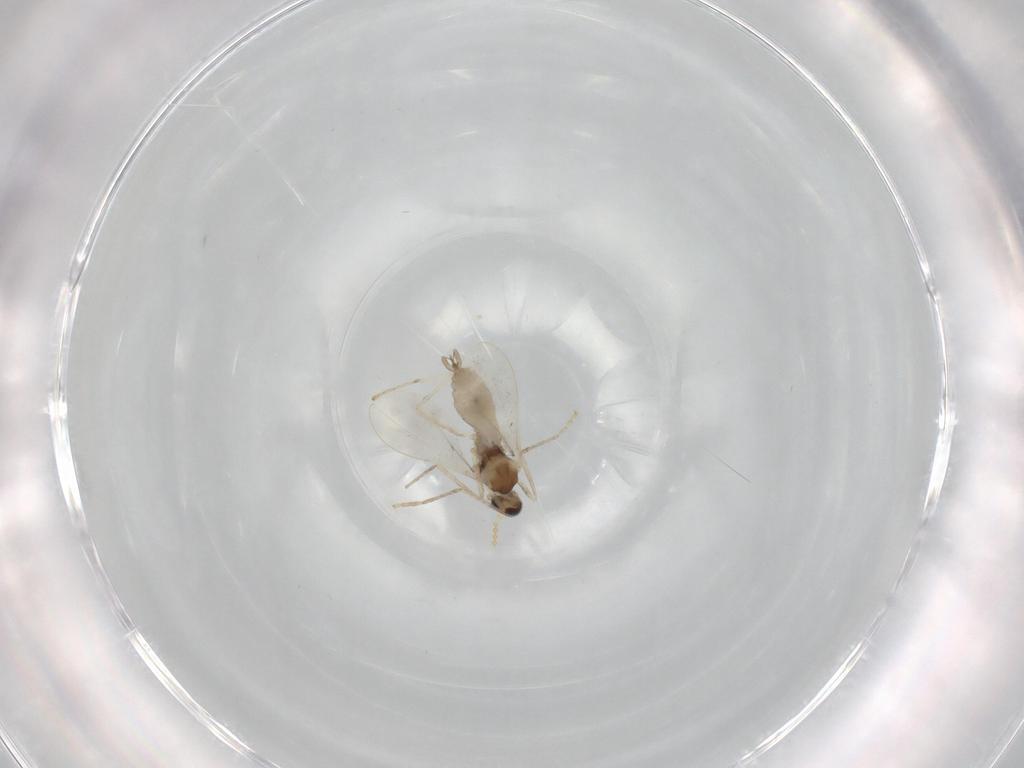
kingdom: Animalia
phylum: Arthropoda
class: Insecta
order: Diptera
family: Cecidomyiidae
